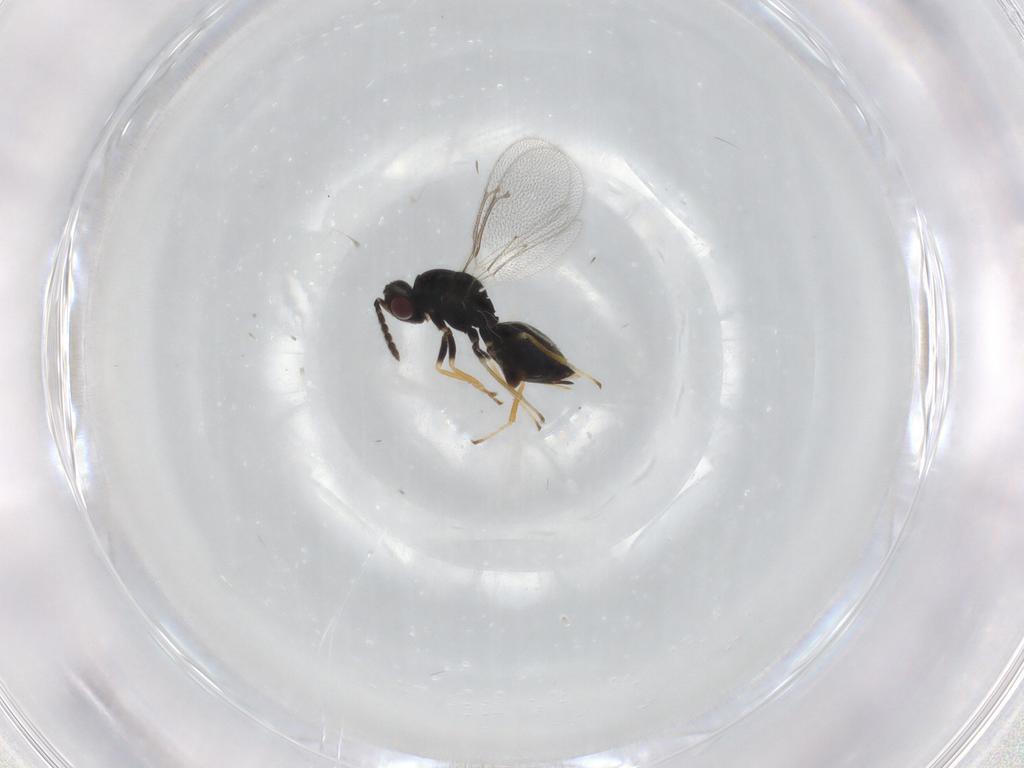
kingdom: Animalia
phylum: Arthropoda
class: Insecta
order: Hymenoptera
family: Eulophidae
